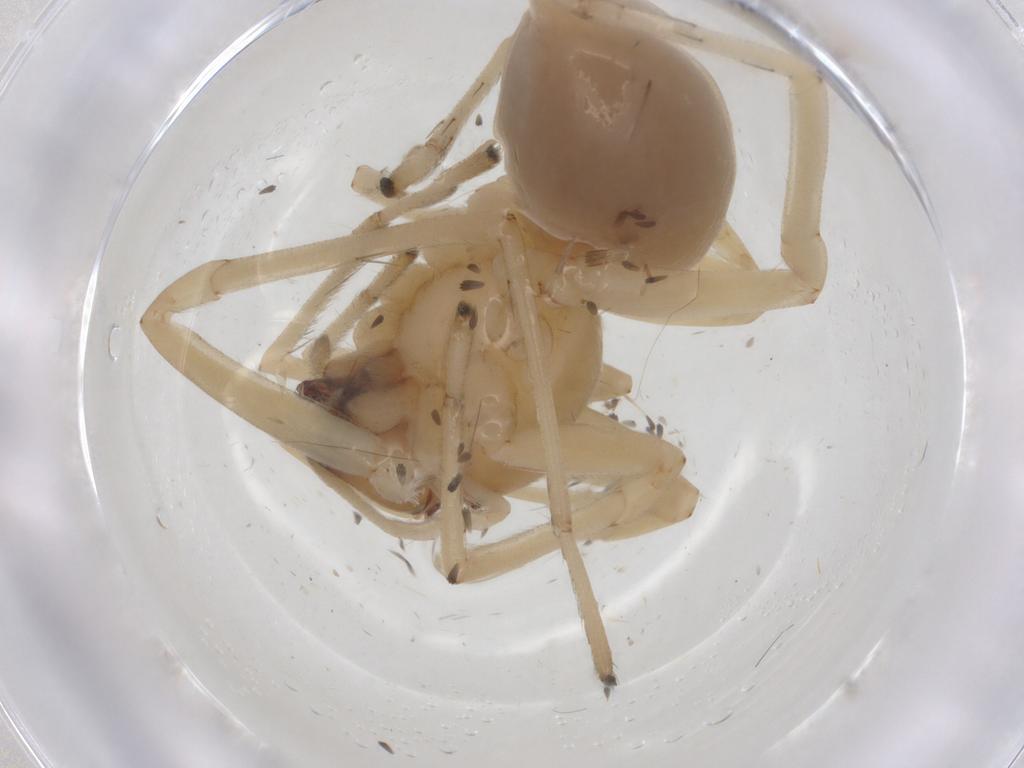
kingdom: Animalia
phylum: Arthropoda
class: Arachnida
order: Araneae
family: Cheiracanthiidae
